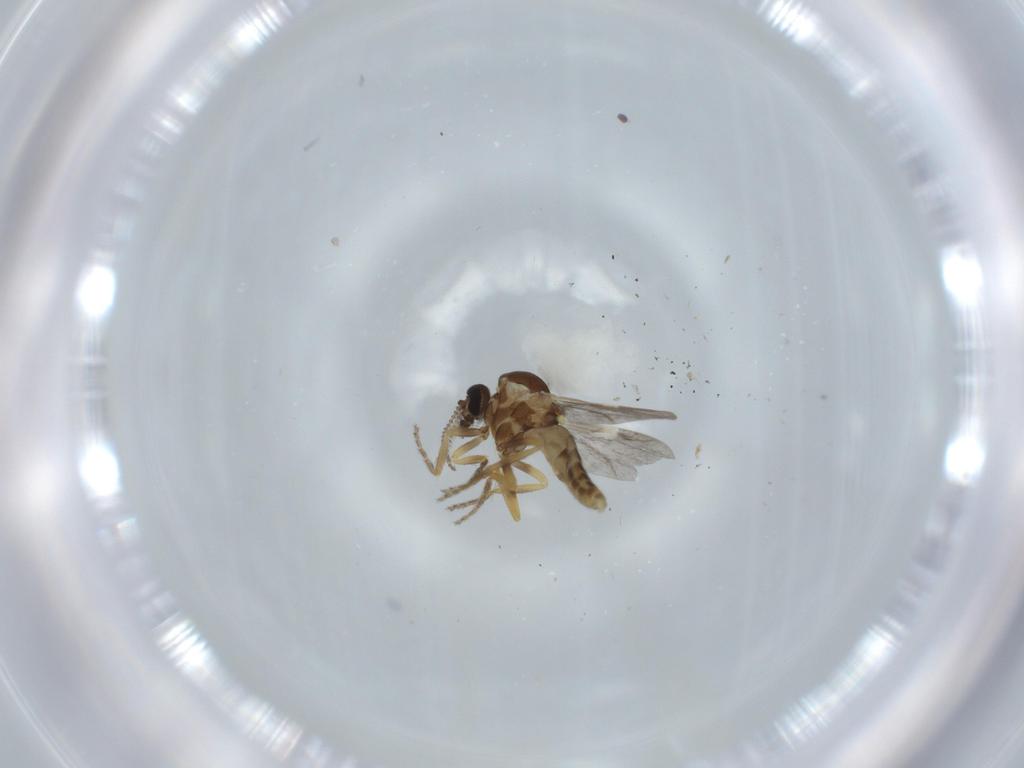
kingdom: Animalia
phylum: Arthropoda
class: Insecta
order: Diptera
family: Ceratopogonidae
